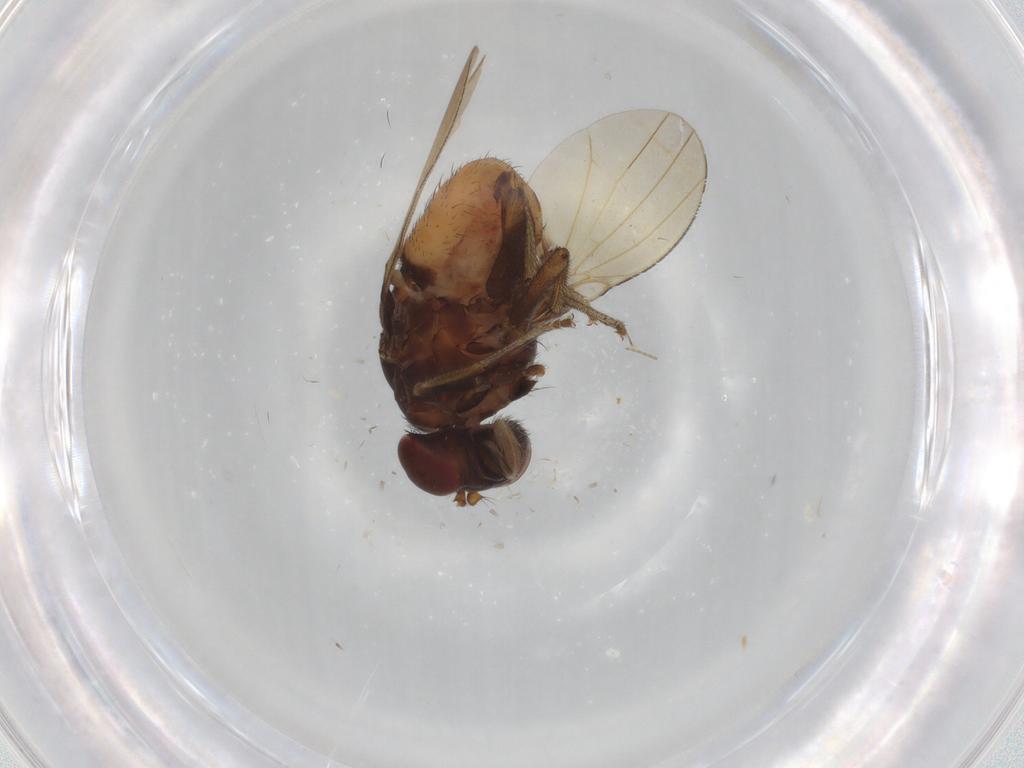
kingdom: Animalia
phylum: Arthropoda
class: Insecta
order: Diptera
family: Cecidomyiidae
